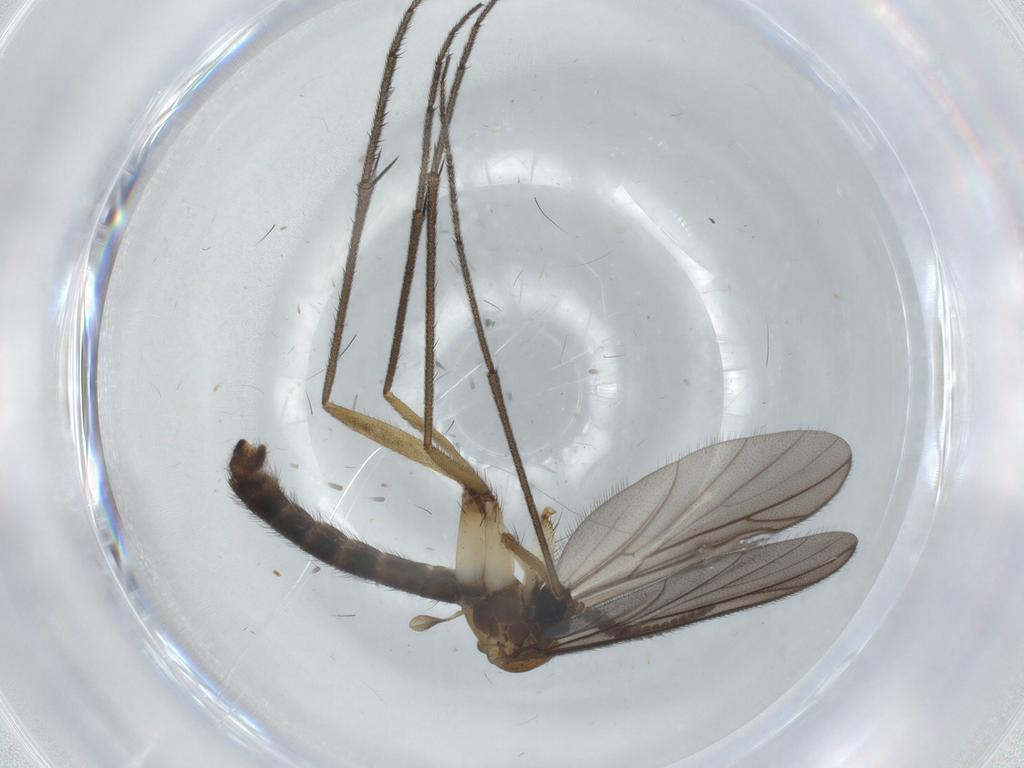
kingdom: Animalia
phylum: Arthropoda
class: Insecta
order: Diptera
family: Ditomyiidae
